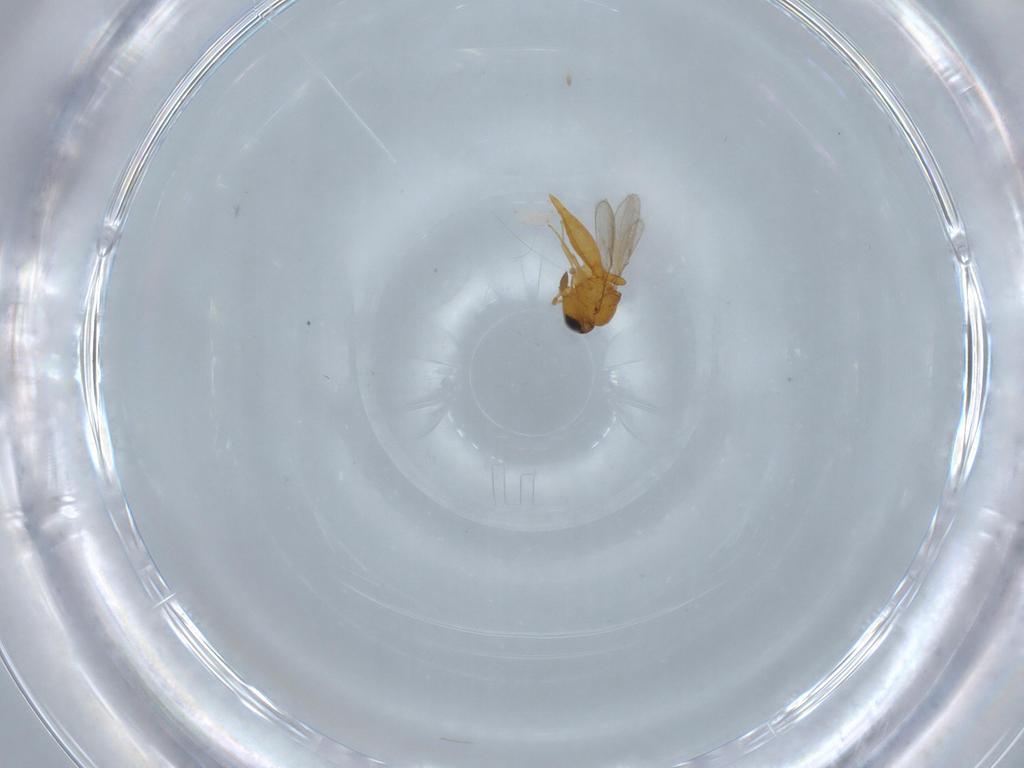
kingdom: Animalia
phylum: Arthropoda
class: Insecta
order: Hymenoptera
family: Scelionidae
